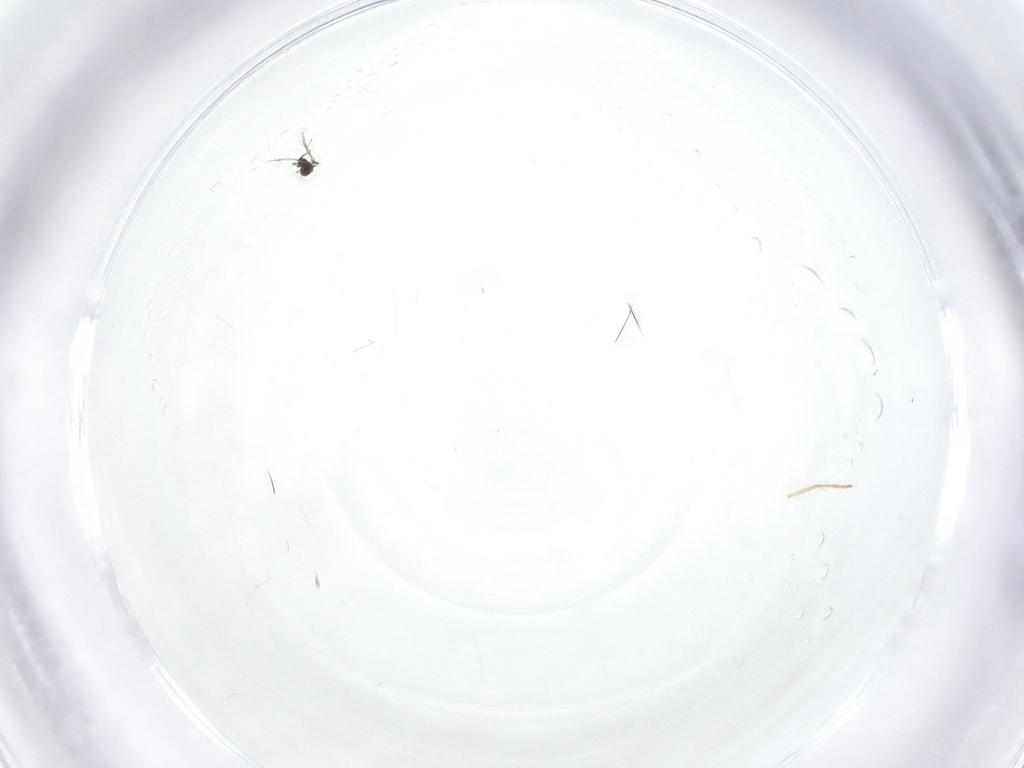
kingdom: Animalia
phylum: Arthropoda
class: Insecta
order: Diptera
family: Chironomidae
